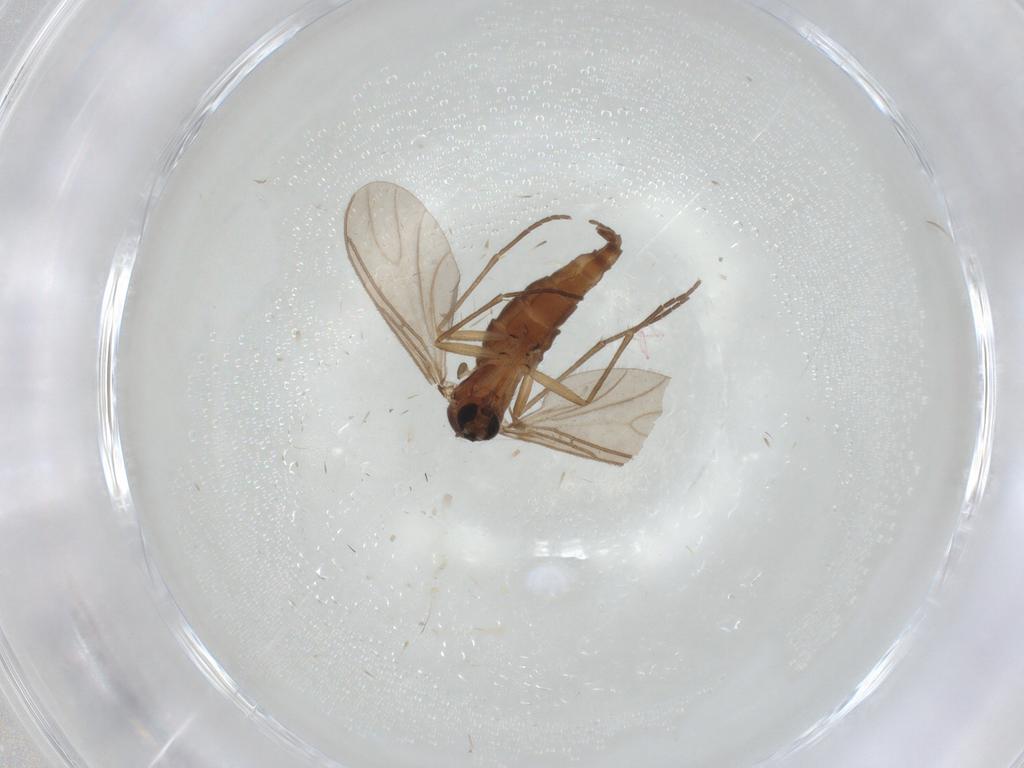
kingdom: Animalia
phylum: Arthropoda
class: Insecta
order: Diptera
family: Sciaridae
